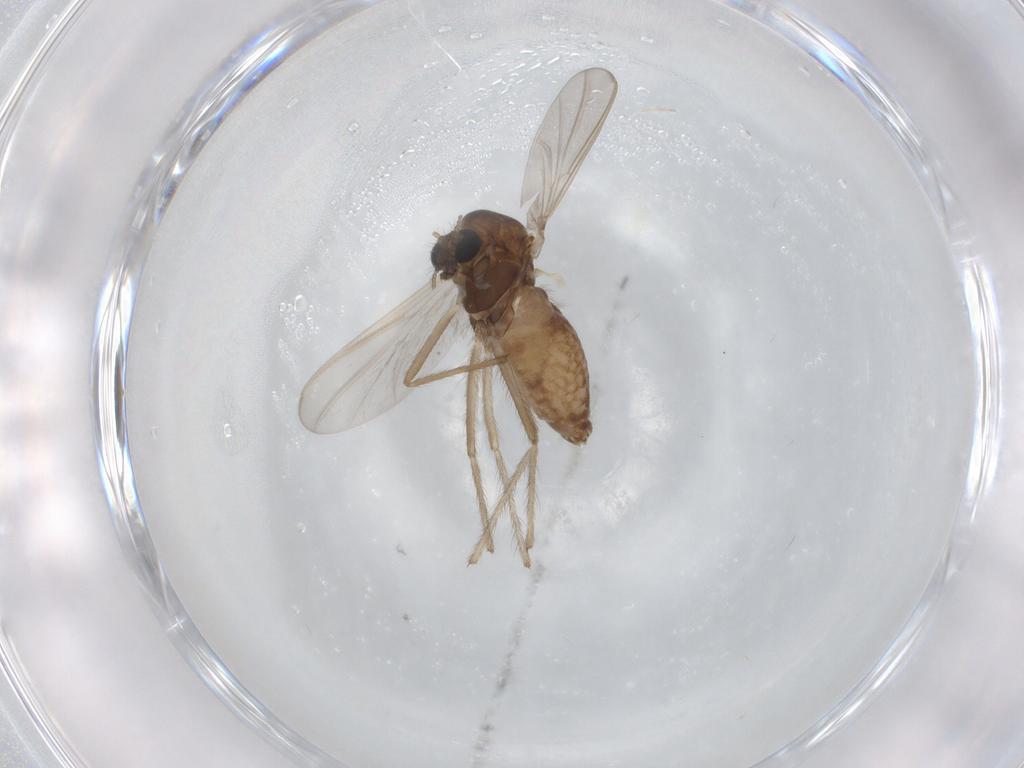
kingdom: Animalia
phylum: Arthropoda
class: Insecta
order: Diptera
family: Chironomidae
